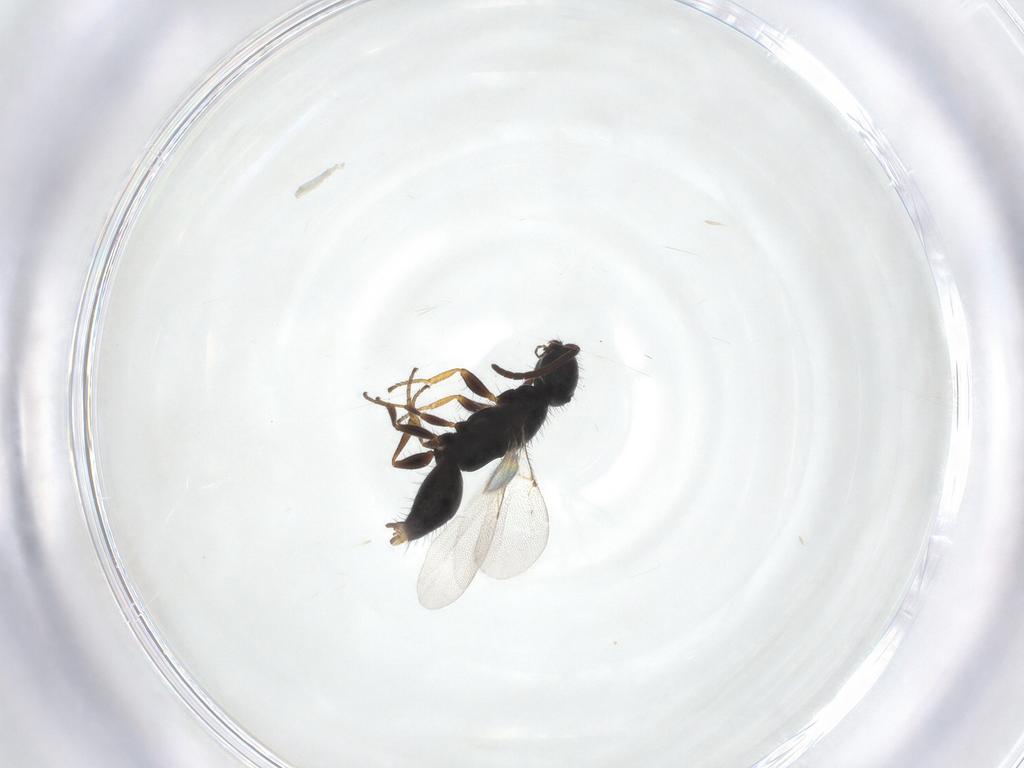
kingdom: Animalia
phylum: Arthropoda
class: Insecta
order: Hymenoptera
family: Bethylidae
